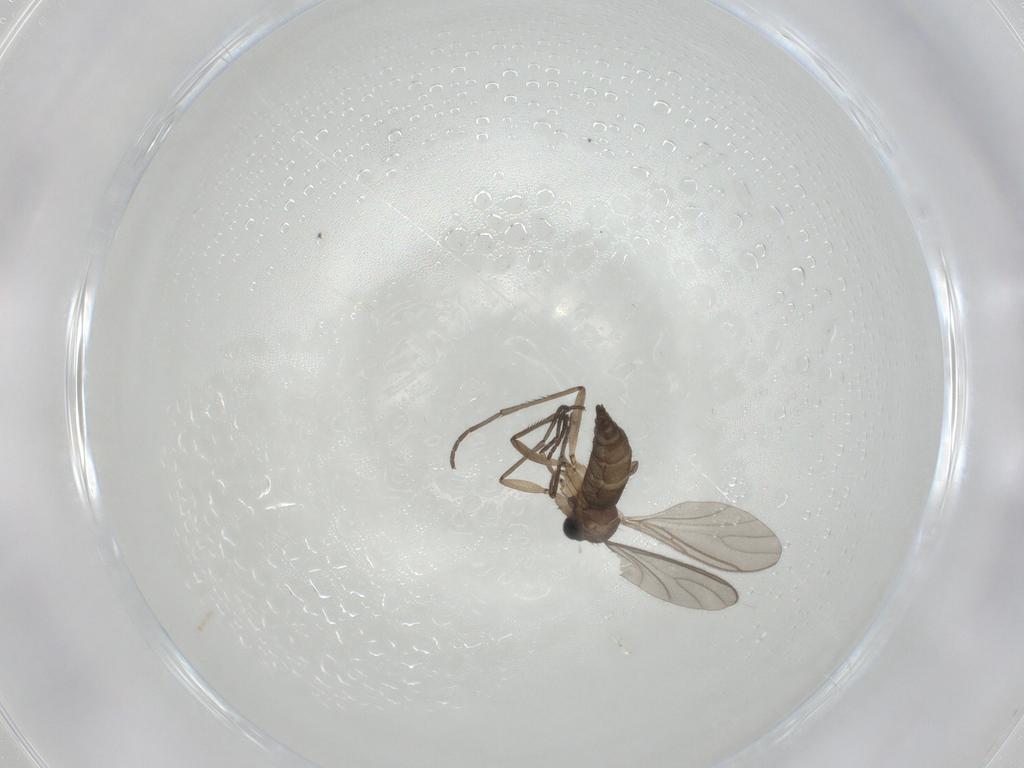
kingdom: Animalia
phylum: Arthropoda
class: Insecta
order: Diptera
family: Sciaridae
